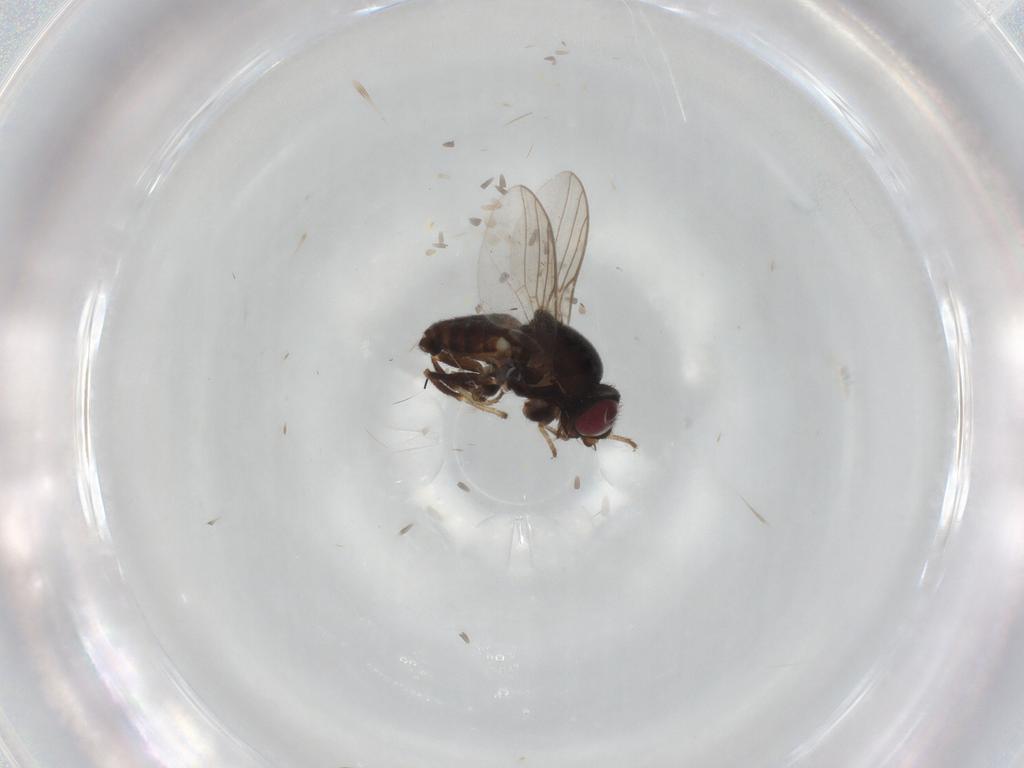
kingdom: Animalia
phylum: Arthropoda
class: Insecta
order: Diptera
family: Chloropidae
